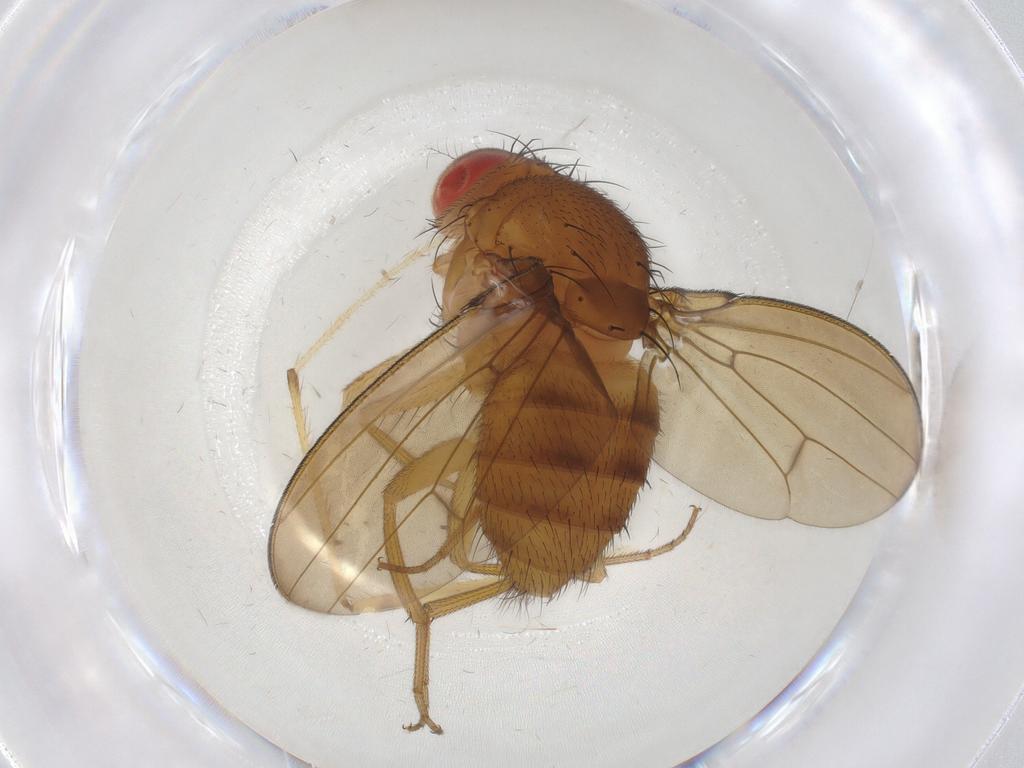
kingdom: Animalia
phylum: Arthropoda
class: Insecta
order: Diptera
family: Drosophilidae
